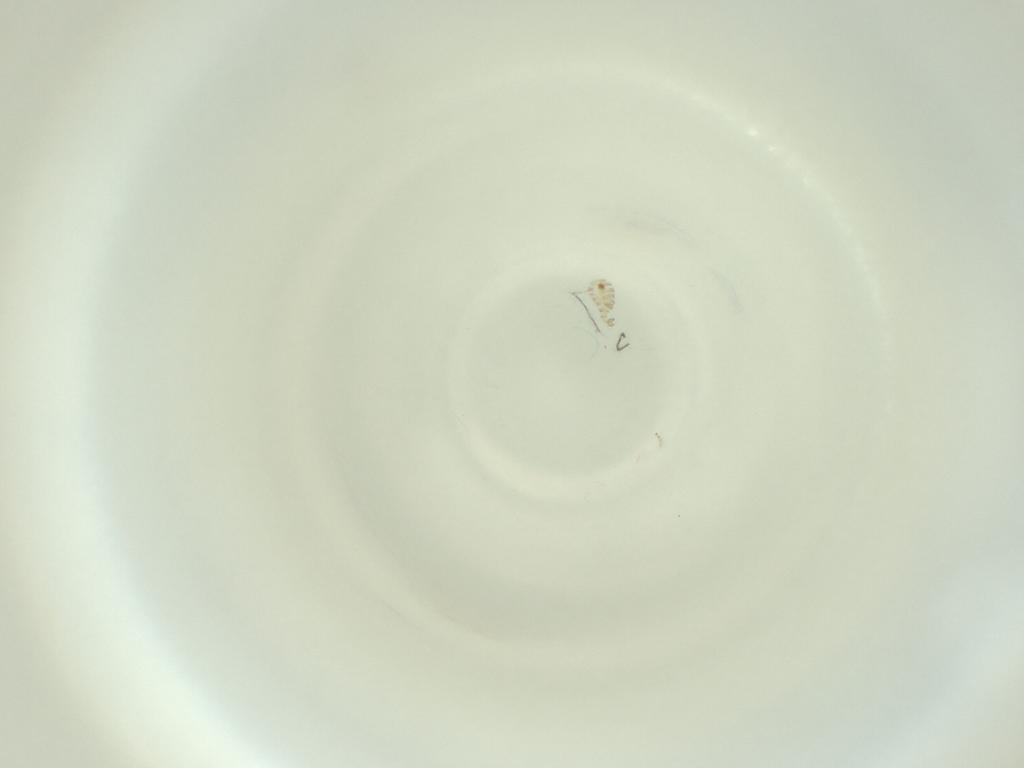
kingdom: Animalia
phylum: Arthropoda
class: Insecta
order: Diptera
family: Cecidomyiidae
